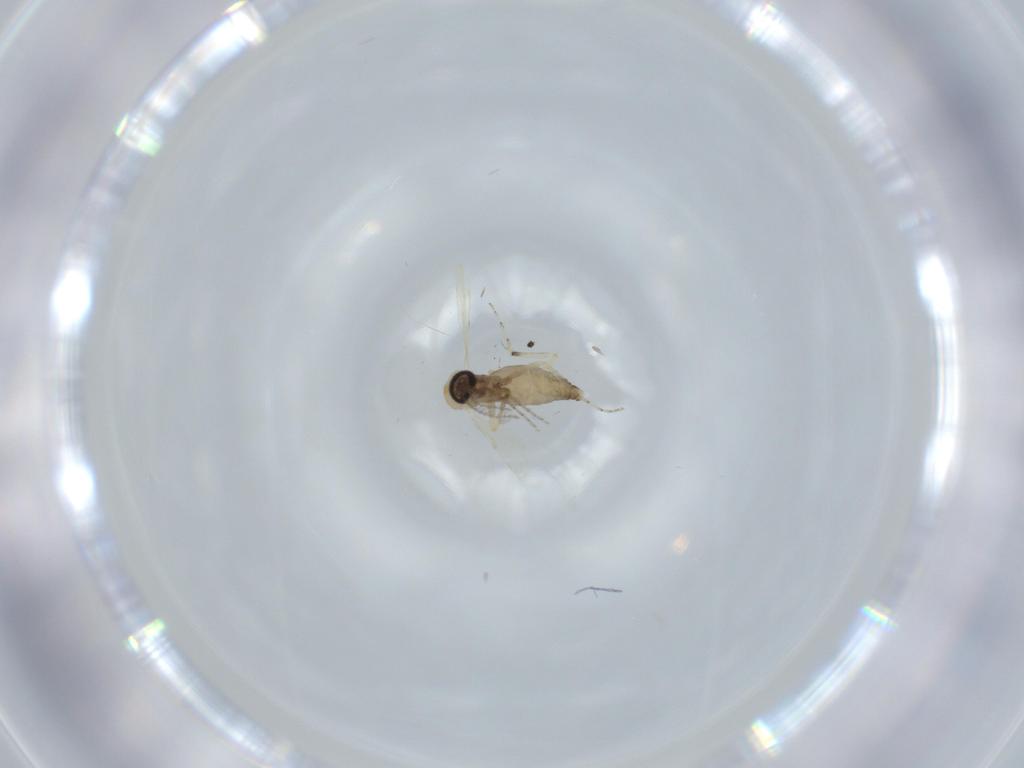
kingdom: Animalia
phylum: Arthropoda
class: Insecta
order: Diptera
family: Ceratopogonidae
